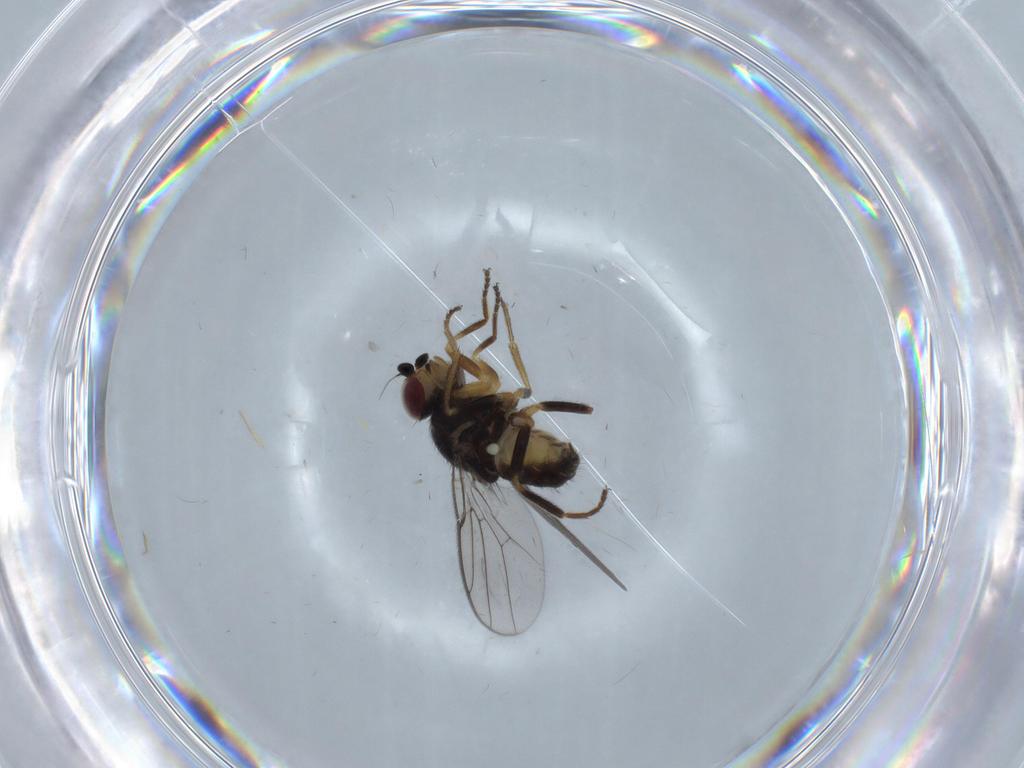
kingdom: Animalia
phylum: Arthropoda
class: Insecta
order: Diptera
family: Chloropidae
